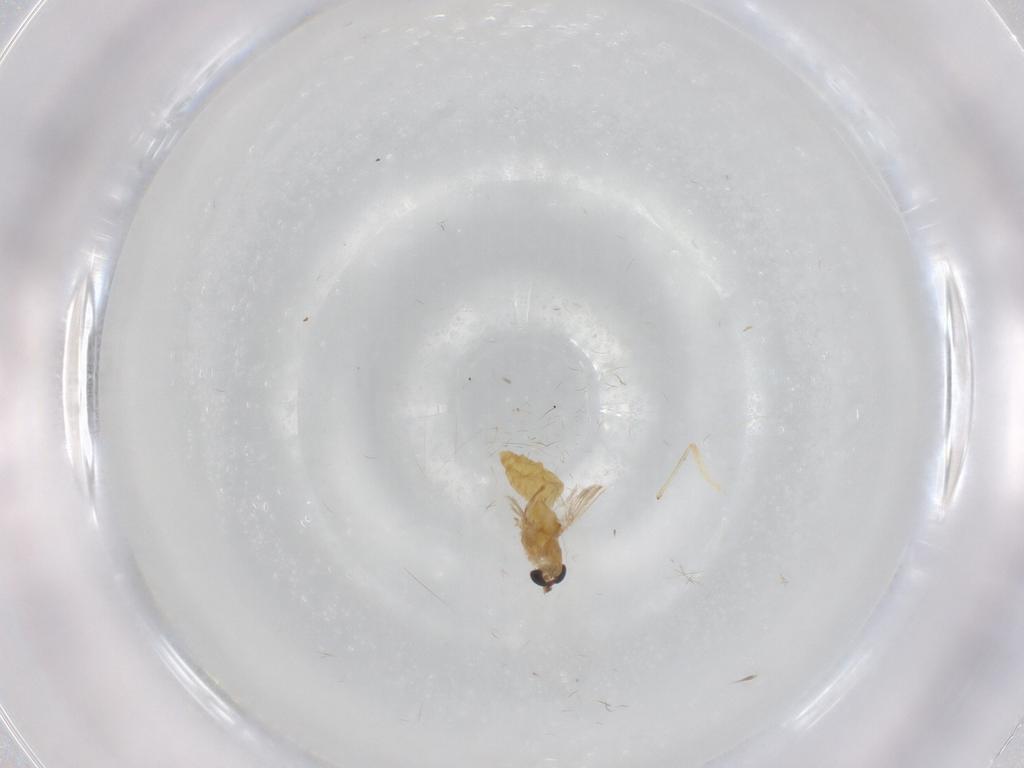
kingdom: Animalia
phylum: Arthropoda
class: Insecta
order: Diptera
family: Chironomidae
